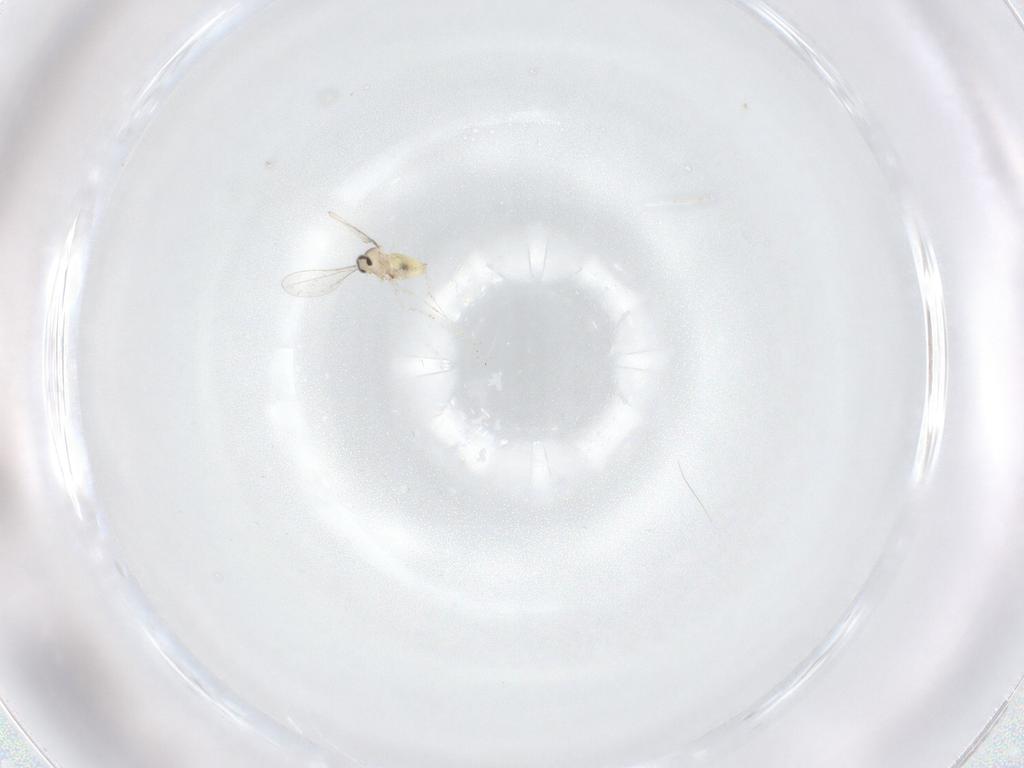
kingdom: Animalia
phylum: Arthropoda
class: Insecta
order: Diptera
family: Cecidomyiidae
